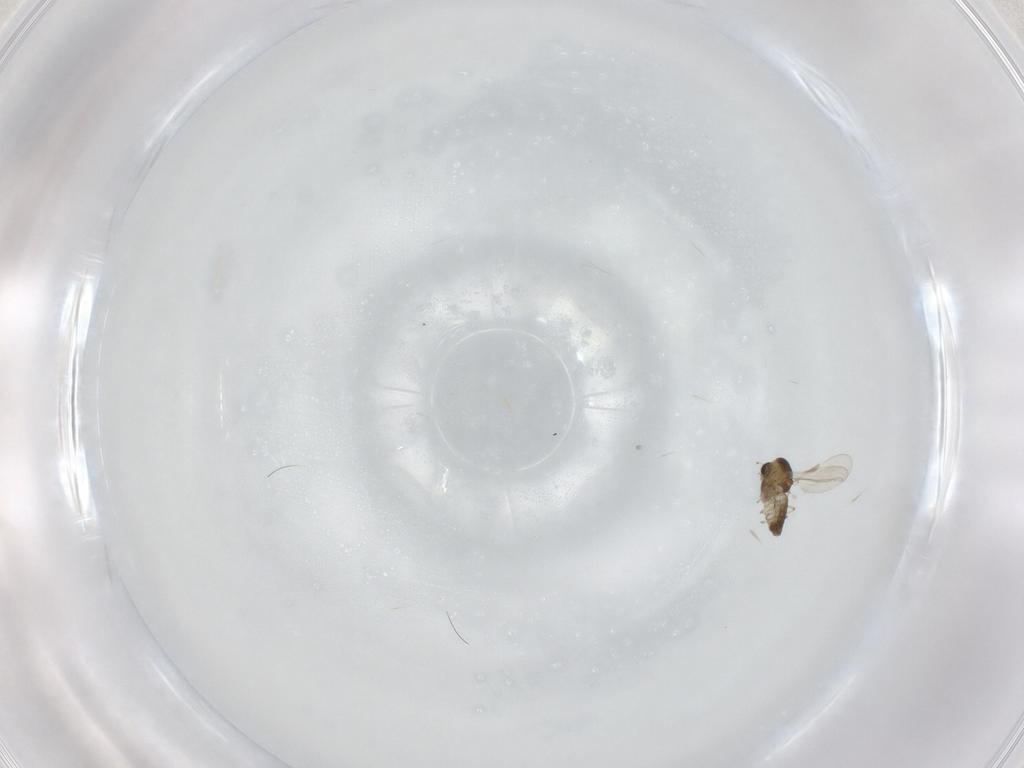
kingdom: Animalia
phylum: Arthropoda
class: Insecta
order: Diptera
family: Chironomidae
